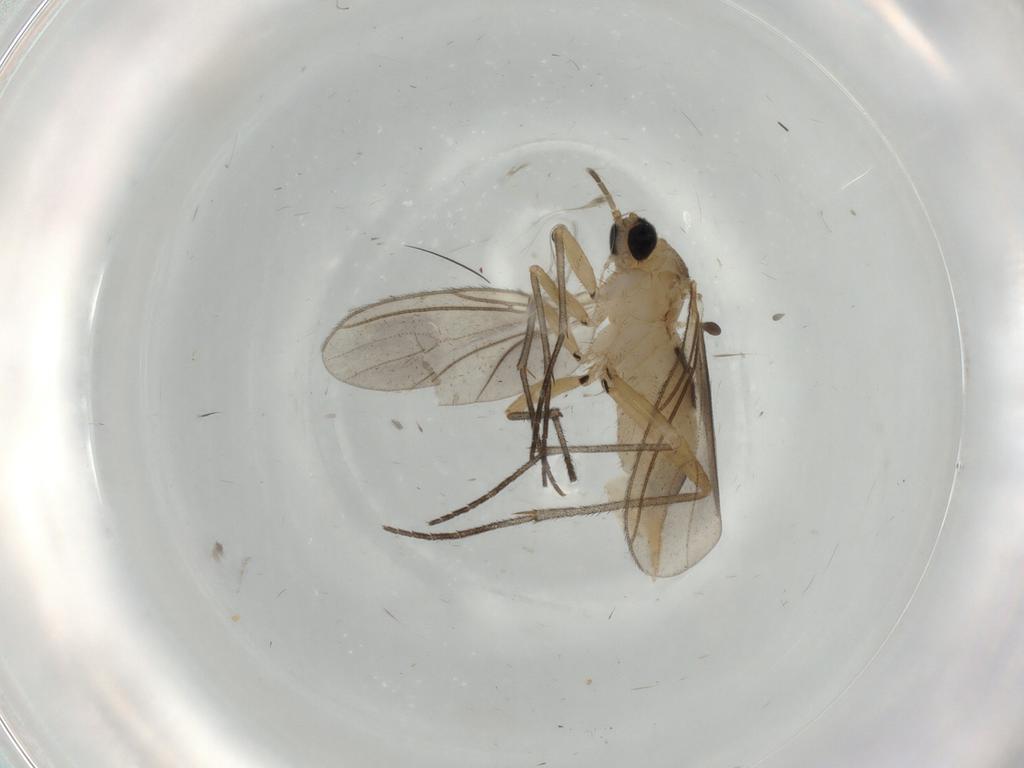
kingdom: Animalia
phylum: Arthropoda
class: Insecta
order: Diptera
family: Sciaridae
